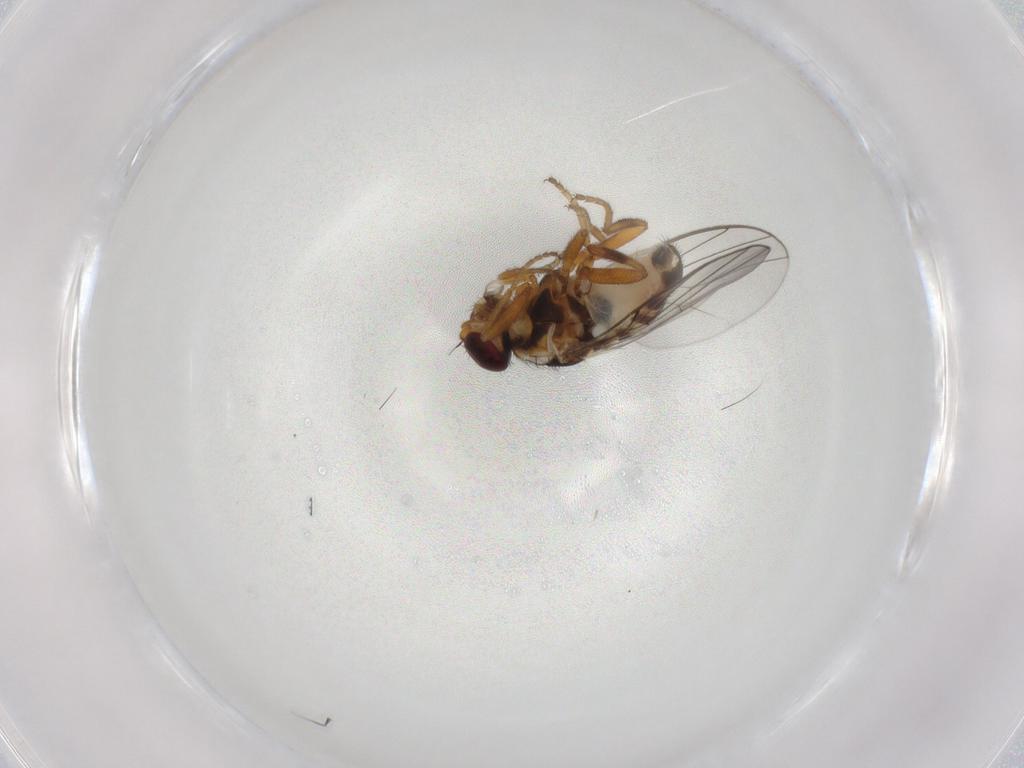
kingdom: Animalia
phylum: Arthropoda
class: Insecta
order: Diptera
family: Chloropidae
